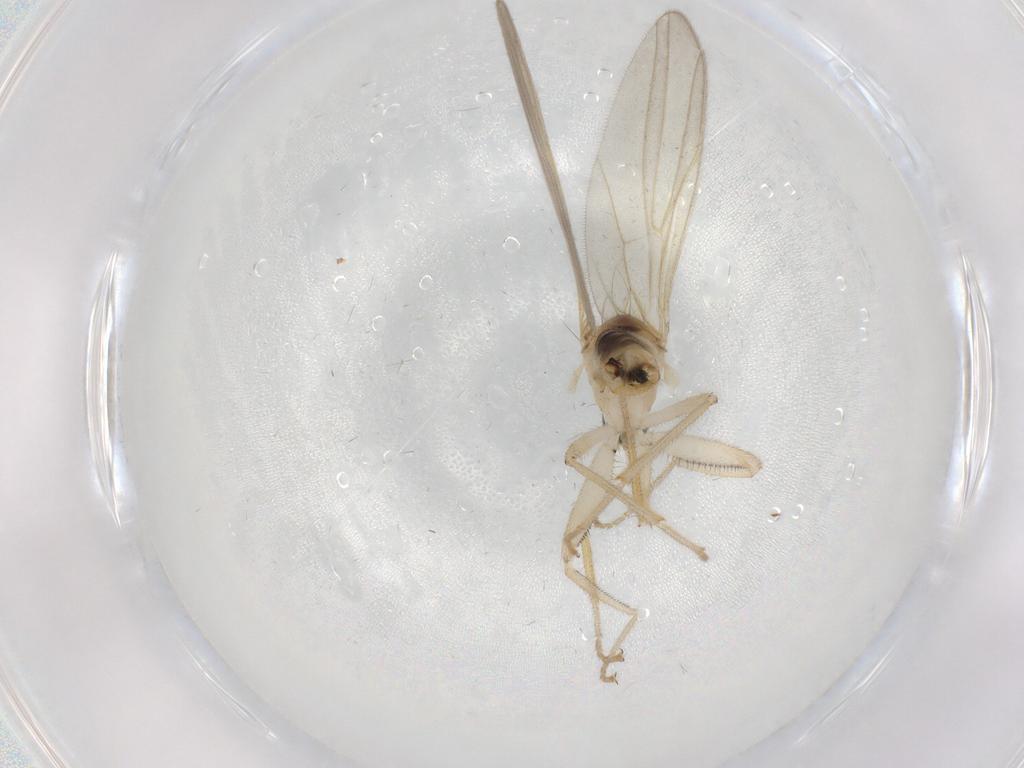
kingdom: Animalia
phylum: Arthropoda
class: Insecta
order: Diptera
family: Hybotidae
